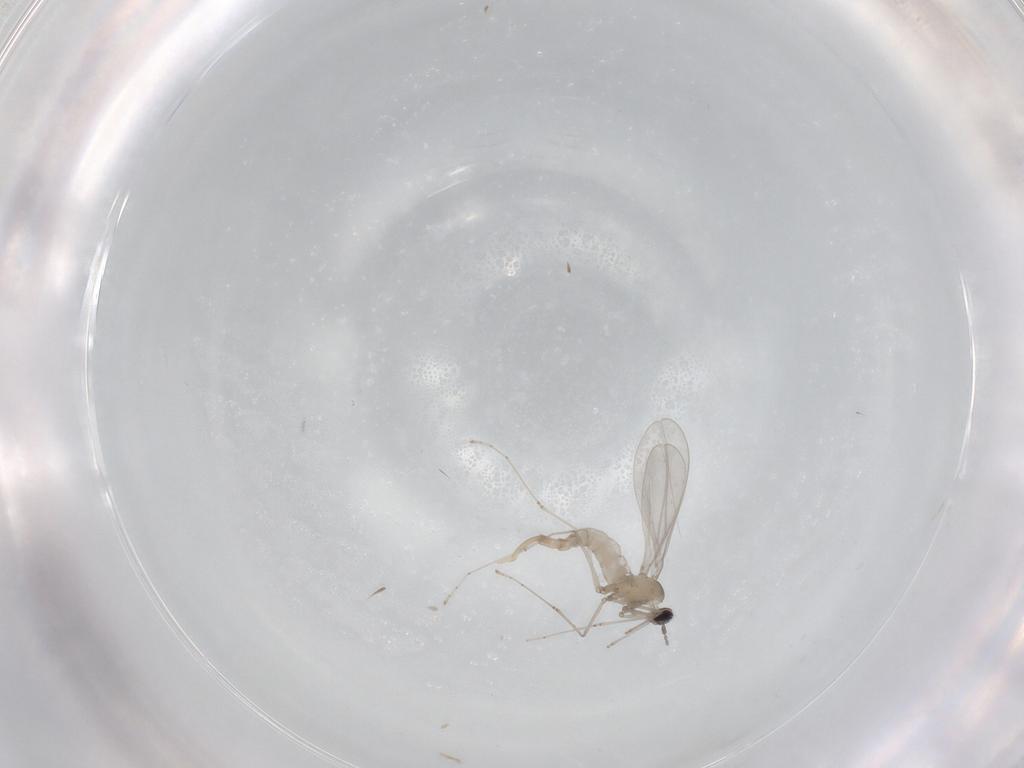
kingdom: Animalia
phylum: Arthropoda
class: Insecta
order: Diptera
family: Cecidomyiidae
